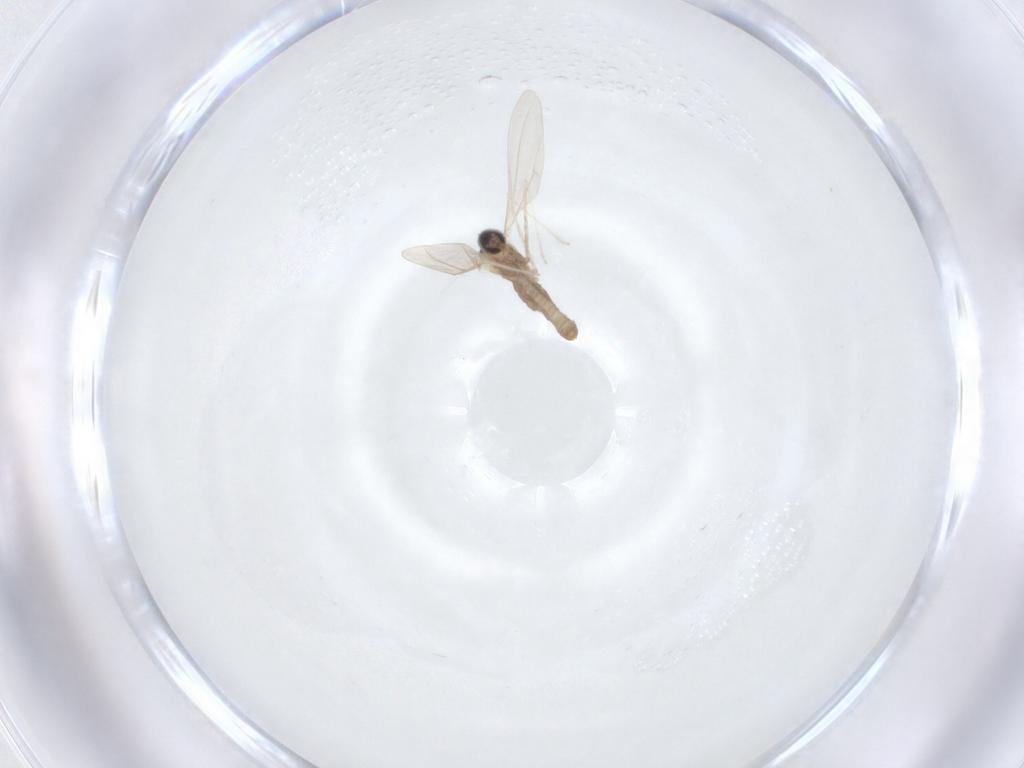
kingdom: Animalia
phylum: Arthropoda
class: Insecta
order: Diptera
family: Cecidomyiidae
